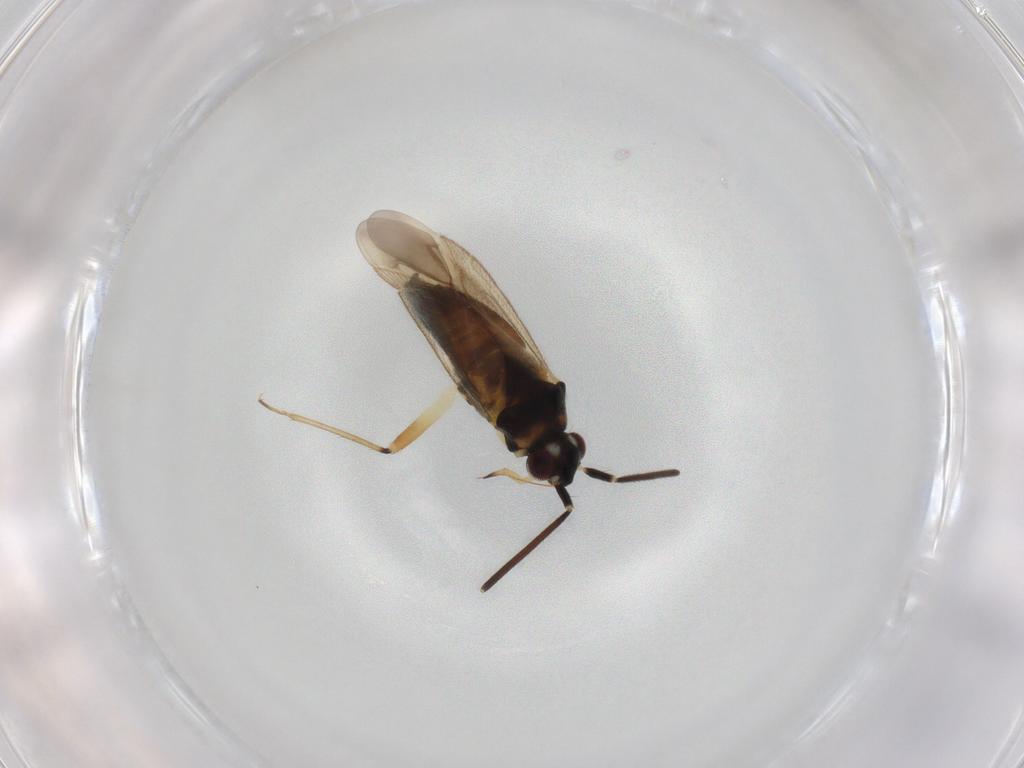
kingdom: Animalia
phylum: Arthropoda
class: Insecta
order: Hemiptera
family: Miridae
